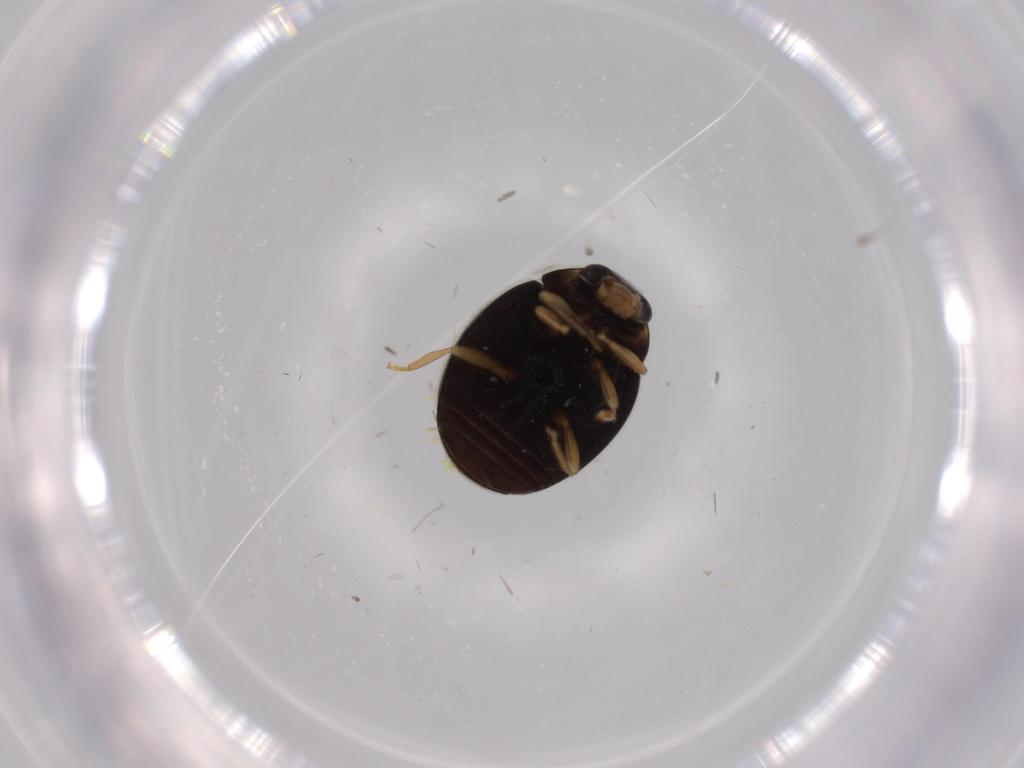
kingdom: Animalia
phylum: Arthropoda
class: Insecta
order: Coleoptera
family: Coccinellidae
